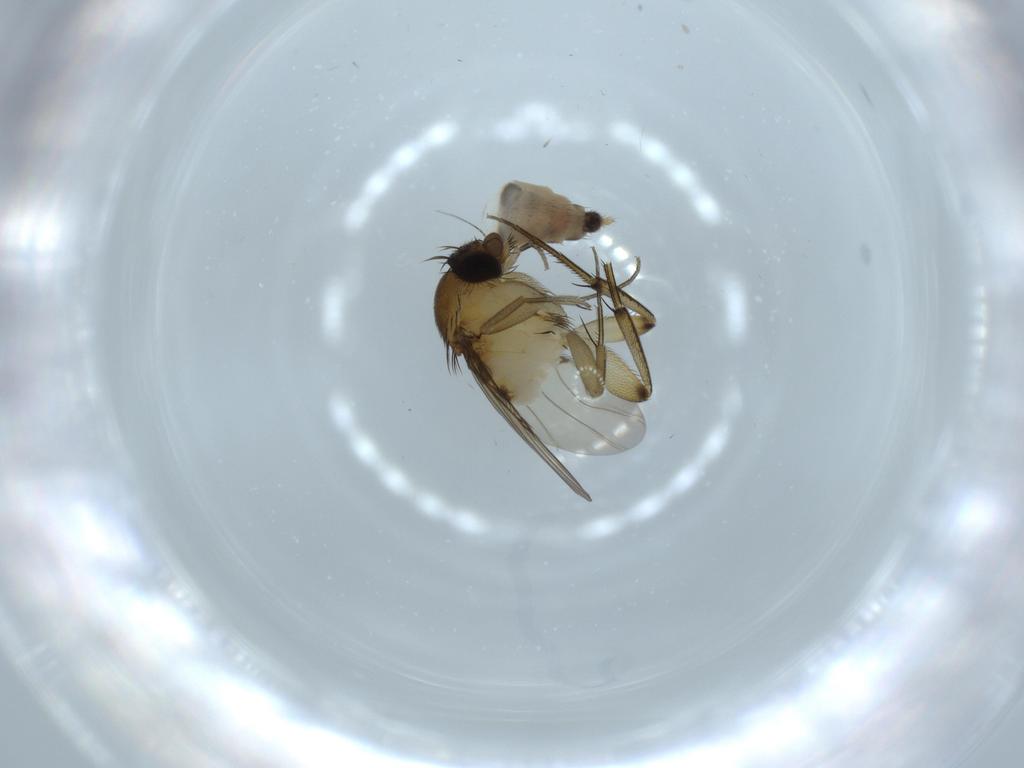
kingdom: Animalia
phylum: Arthropoda
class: Insecta
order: Diptera
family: Phoridae
